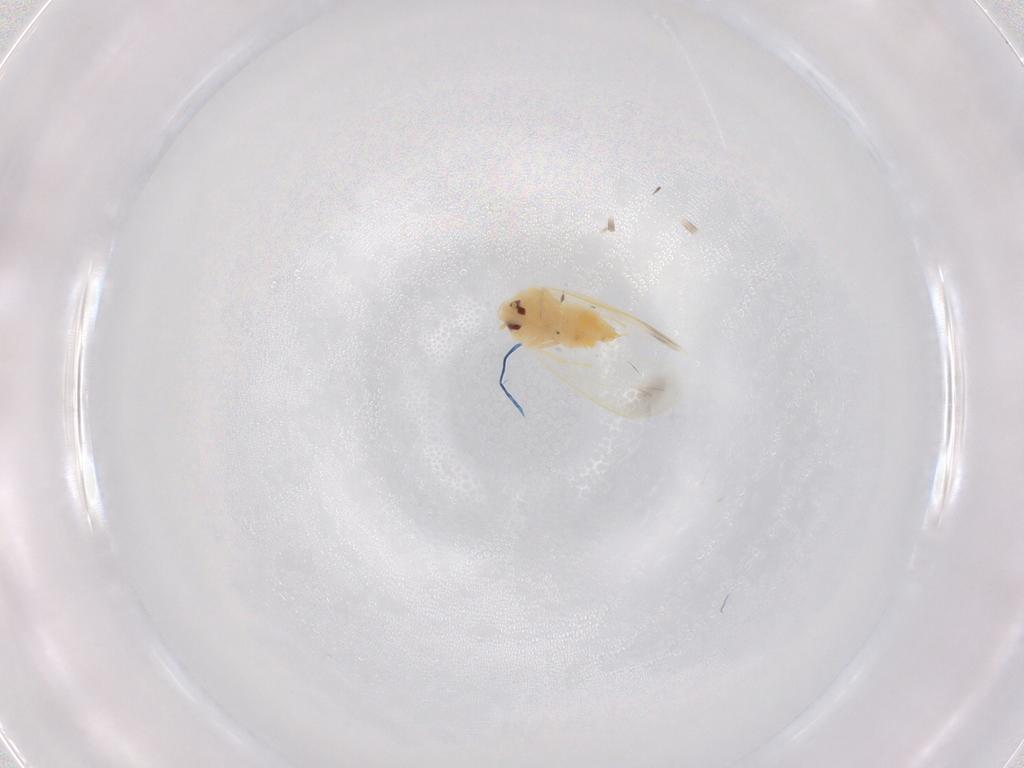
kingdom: Animalia
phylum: Arthropoda
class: Insecta
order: Hemiptera
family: Aleyrodidae
